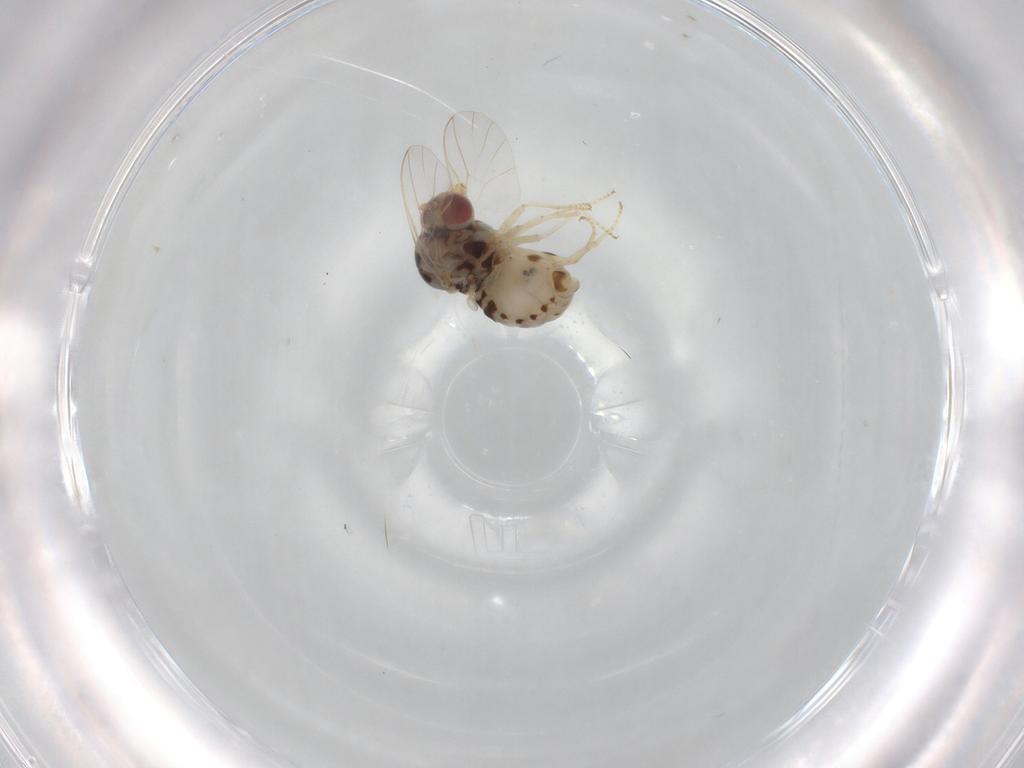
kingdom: Animalia
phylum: Arthropoda
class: Insecta
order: Diptera
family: Bombyliidae
